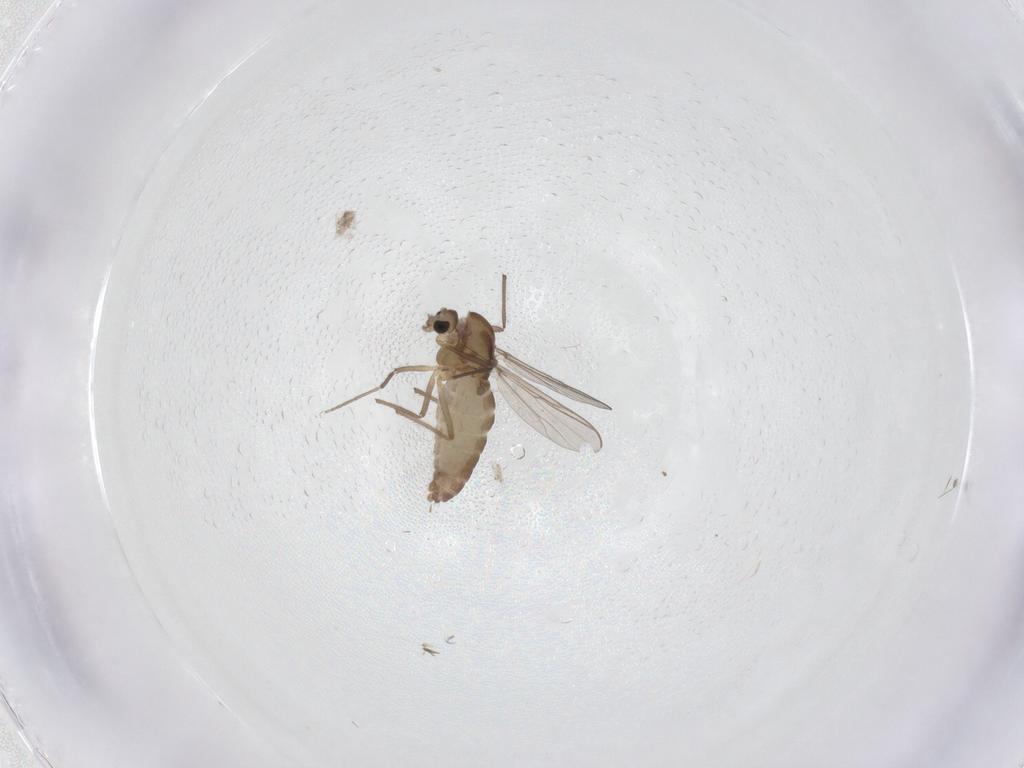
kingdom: Animalia
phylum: Arthropoda
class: Insecta
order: Diptera
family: Chironomidae
